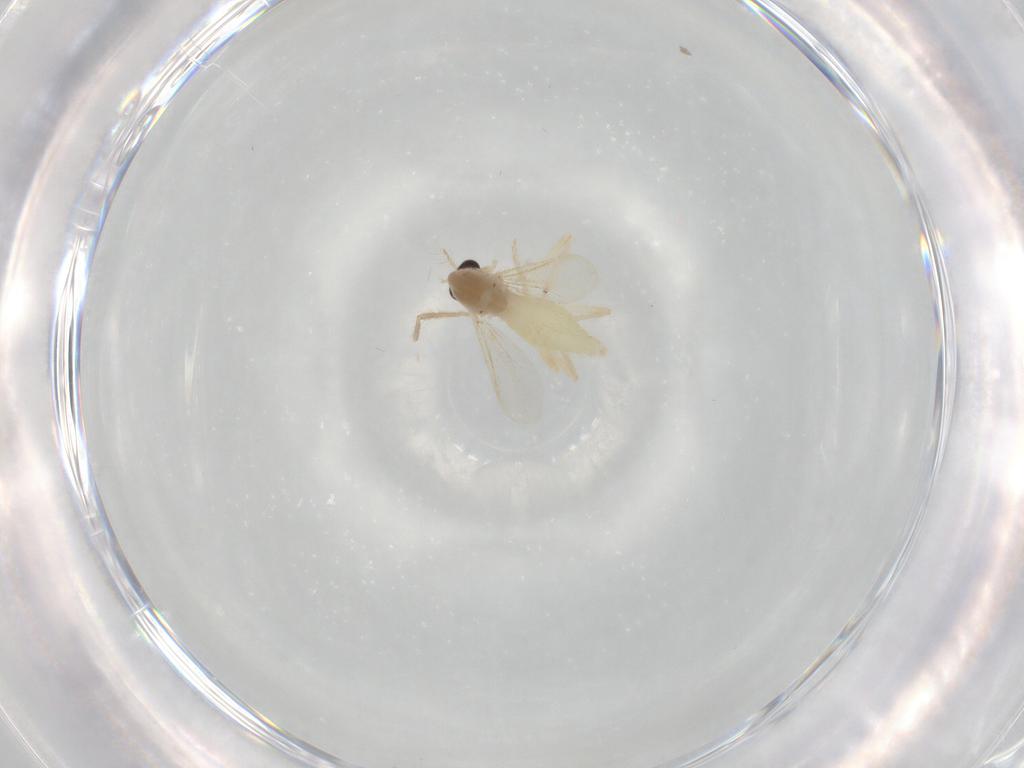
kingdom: Animalia
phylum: Arthropoda
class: Insecta
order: Diptera
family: Chironomidae
